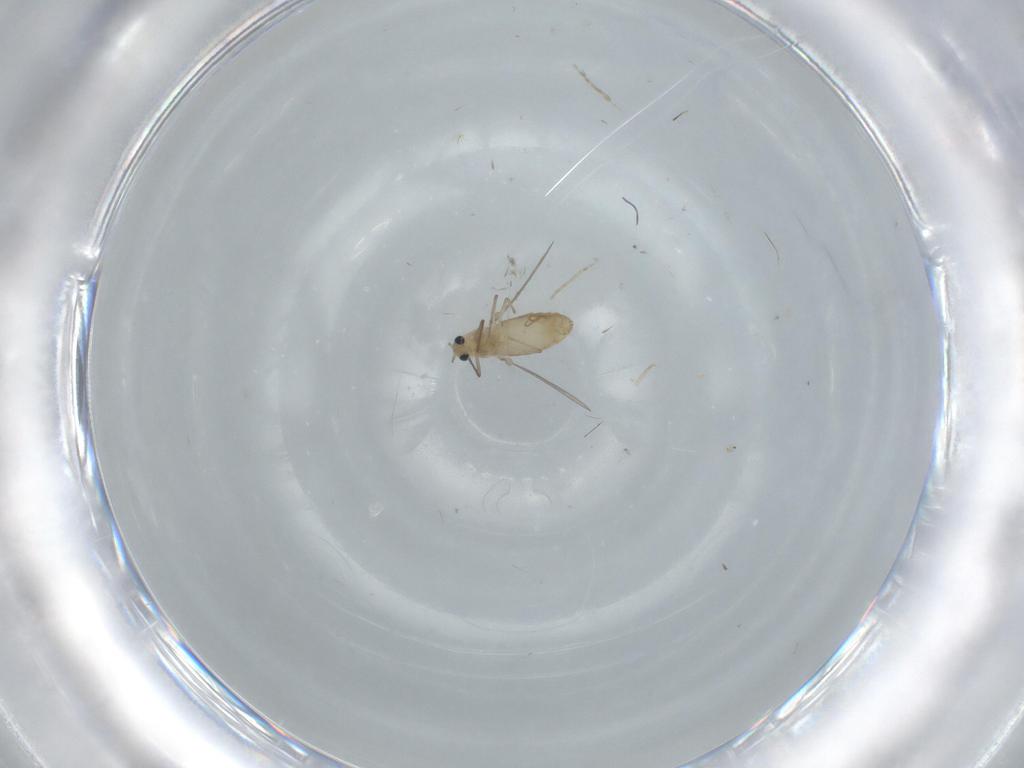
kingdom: Animalia
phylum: Arthropoda
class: Insecta
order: Diptera
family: Chironomidae
